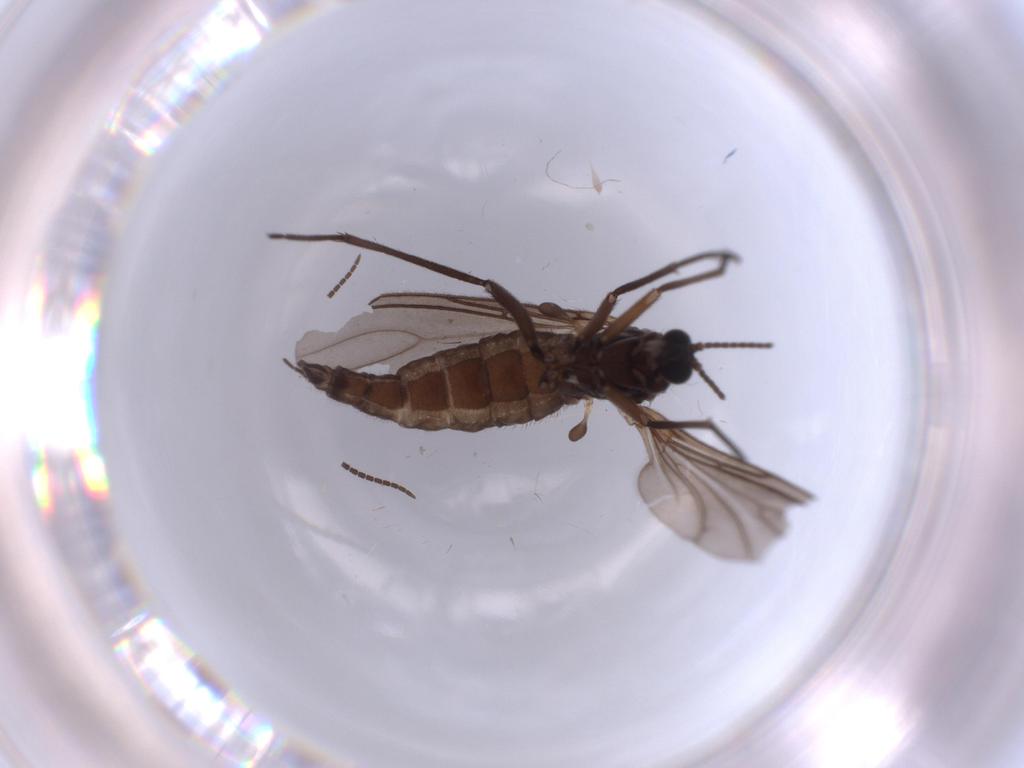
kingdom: Animalia
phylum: Arthropoda
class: Insecta
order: Diptera
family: Sciaridae
